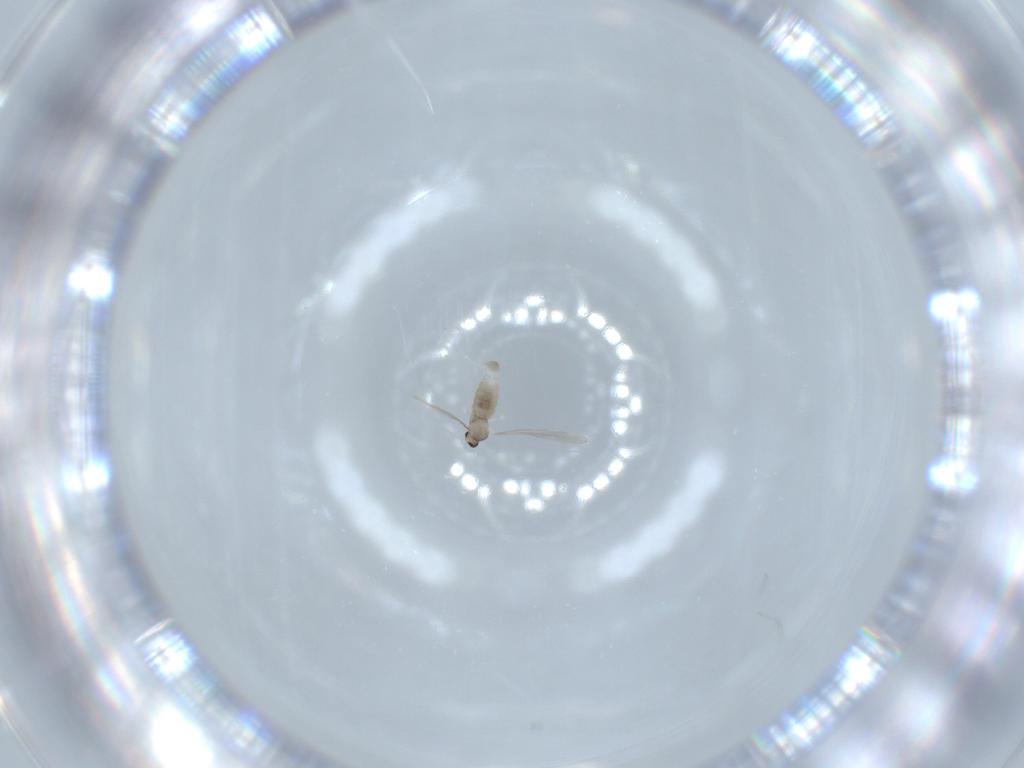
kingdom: Animalia
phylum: Arthropoda
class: Insecta
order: Diptera
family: Cecidomyiidae
